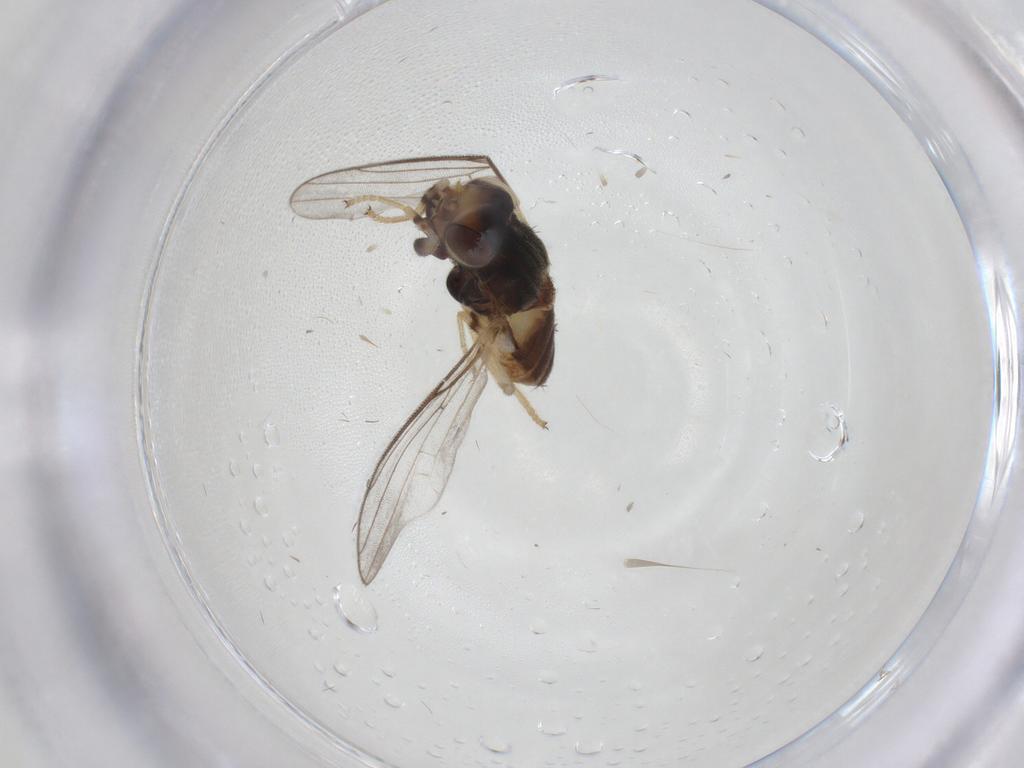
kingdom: Animalia
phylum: Arthropoda
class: Insecta
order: Diptera
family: Chloropidae
